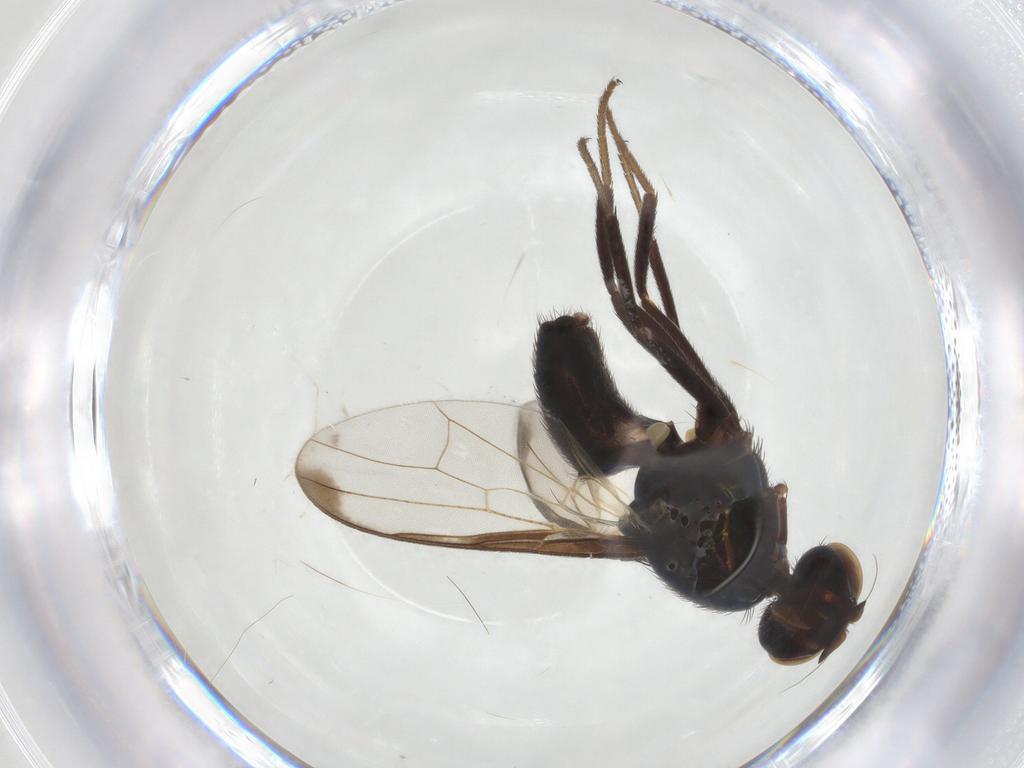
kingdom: Animalia
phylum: Arthropoda
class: Insecta
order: Diptera
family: Platystomatidae
